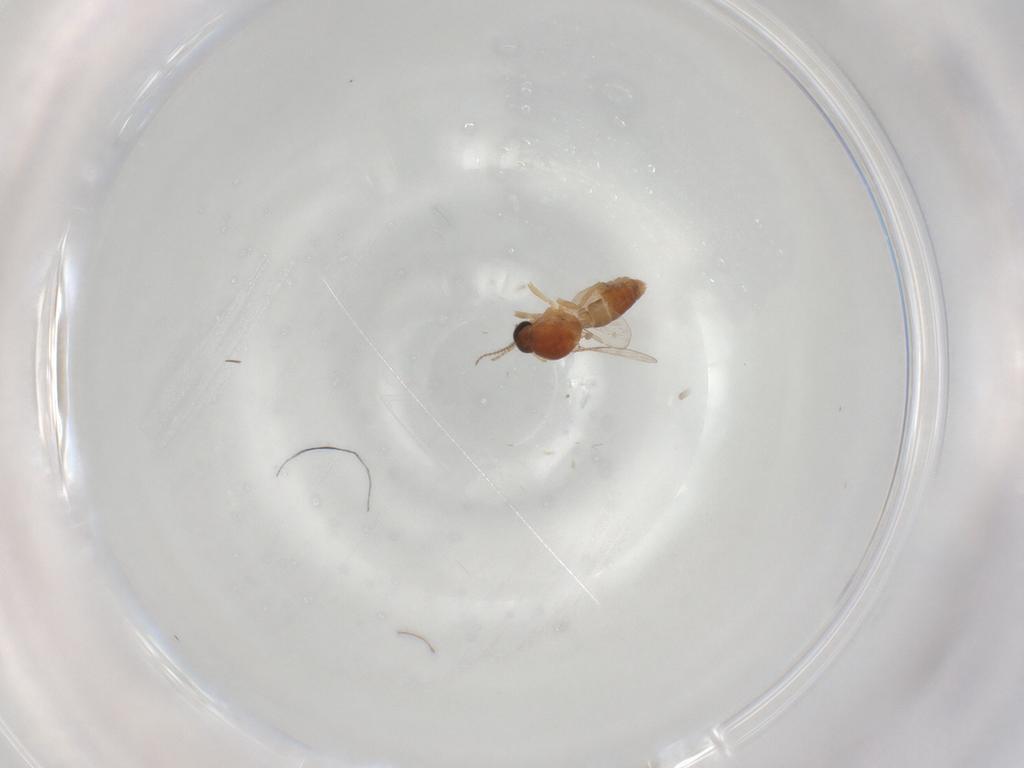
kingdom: Animalia
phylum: Arthropoda
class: Insecta
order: Diptera
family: Ceratopogonidae
